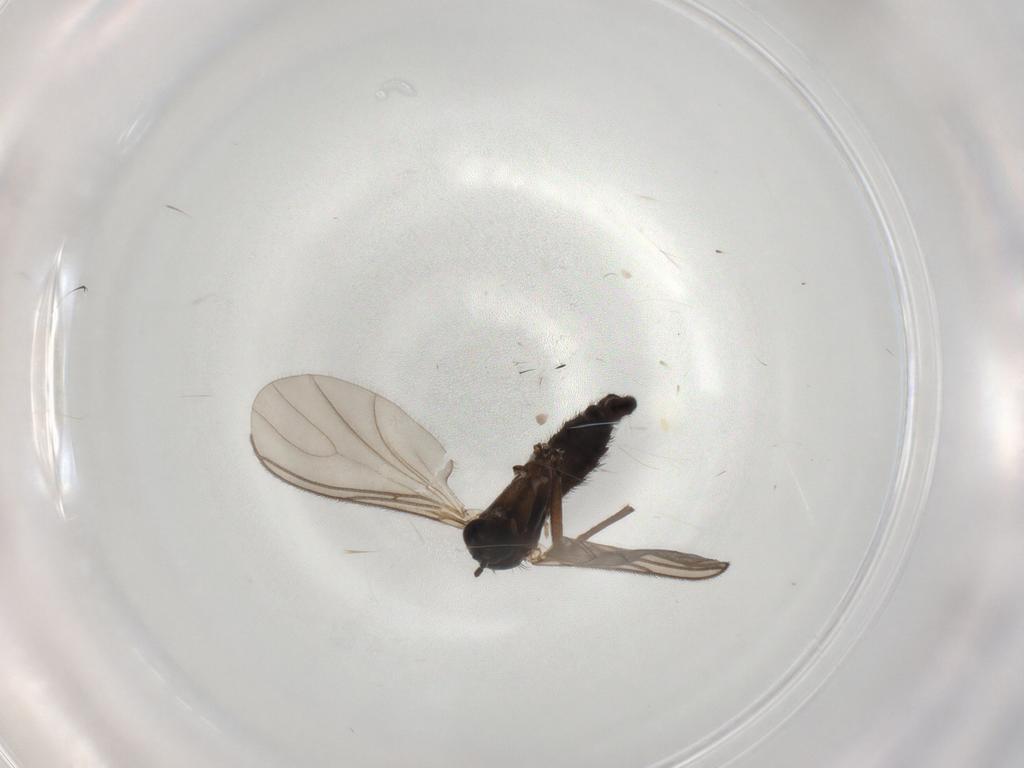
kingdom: Animalia
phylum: Arthropoda
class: Insecta
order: Diptera
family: Sciaridae
